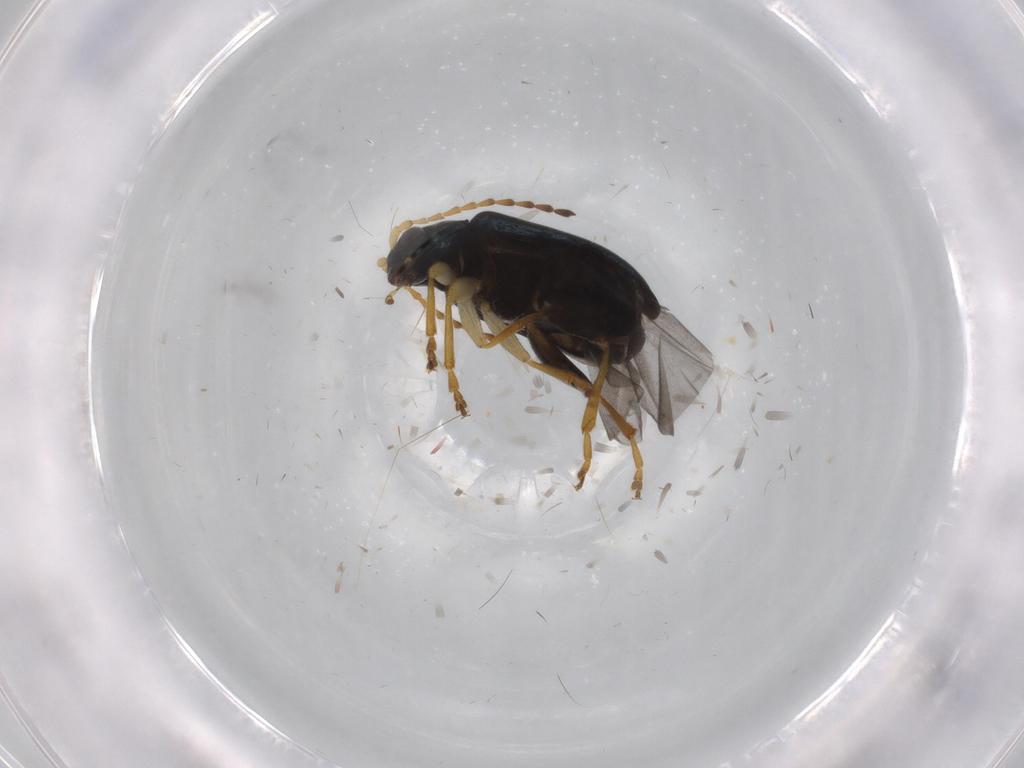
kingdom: Animalia
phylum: Arthropoda
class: Insecta
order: Coleoptera
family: Chrysomelidae
